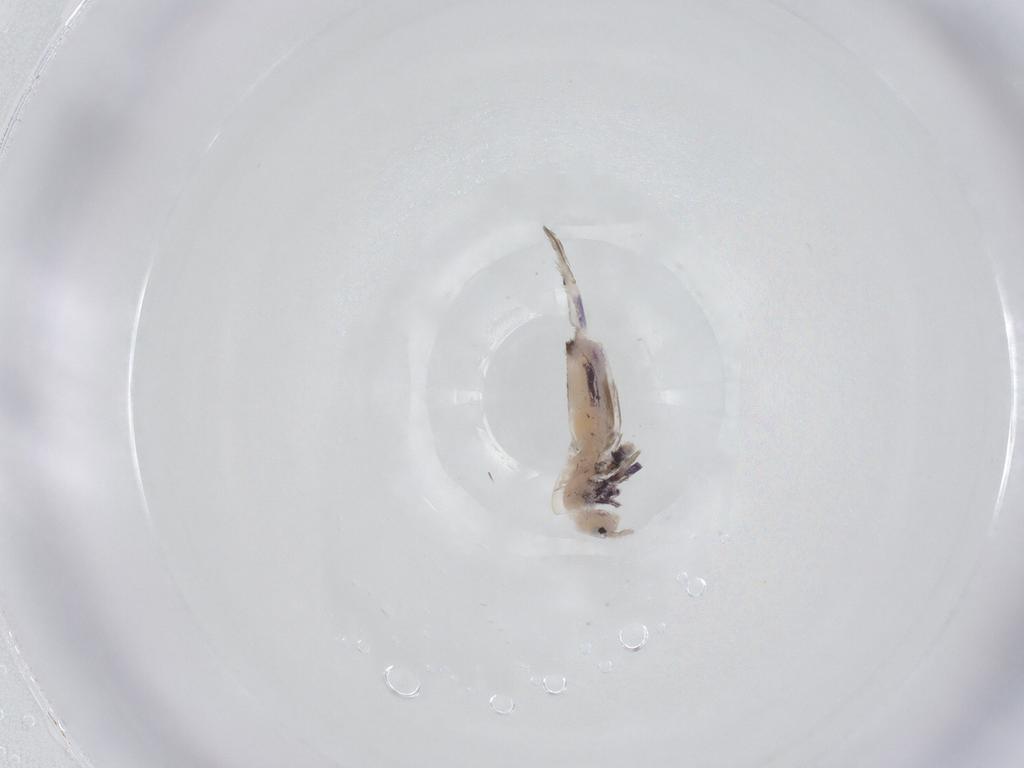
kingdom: Animalia
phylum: Arthropoda
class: Collembola
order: Entomobryomorpha
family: Entomobryidae
